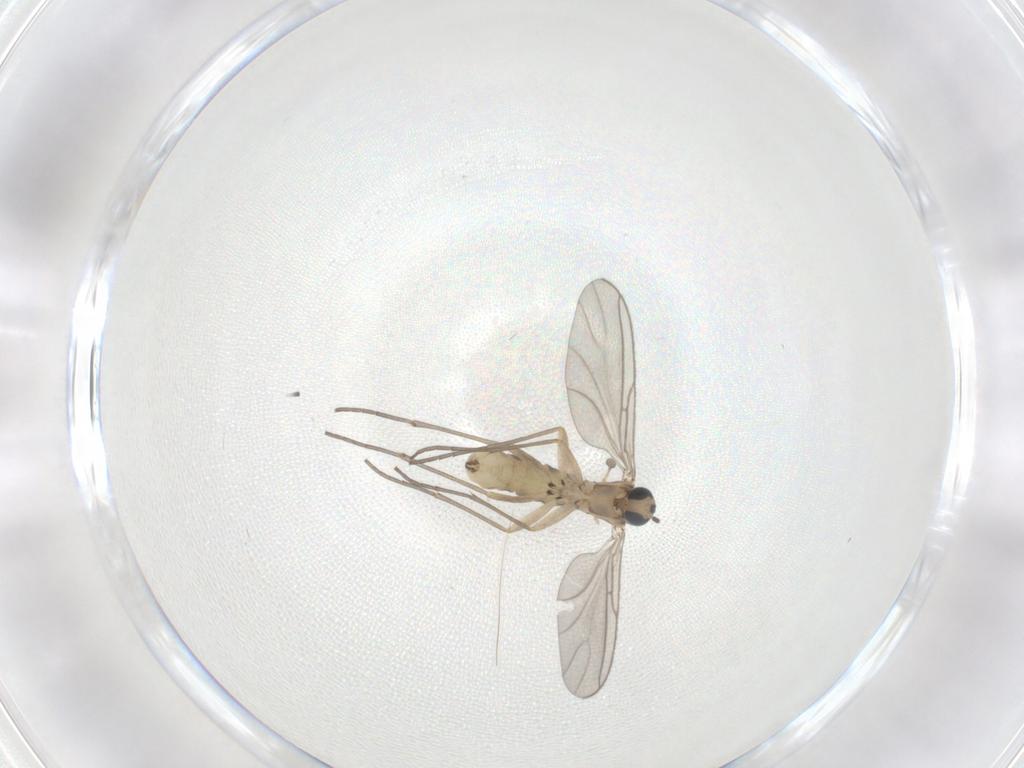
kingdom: Animalia
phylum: Arthropoda
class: Insecta
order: Diptera
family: Sciaridae
